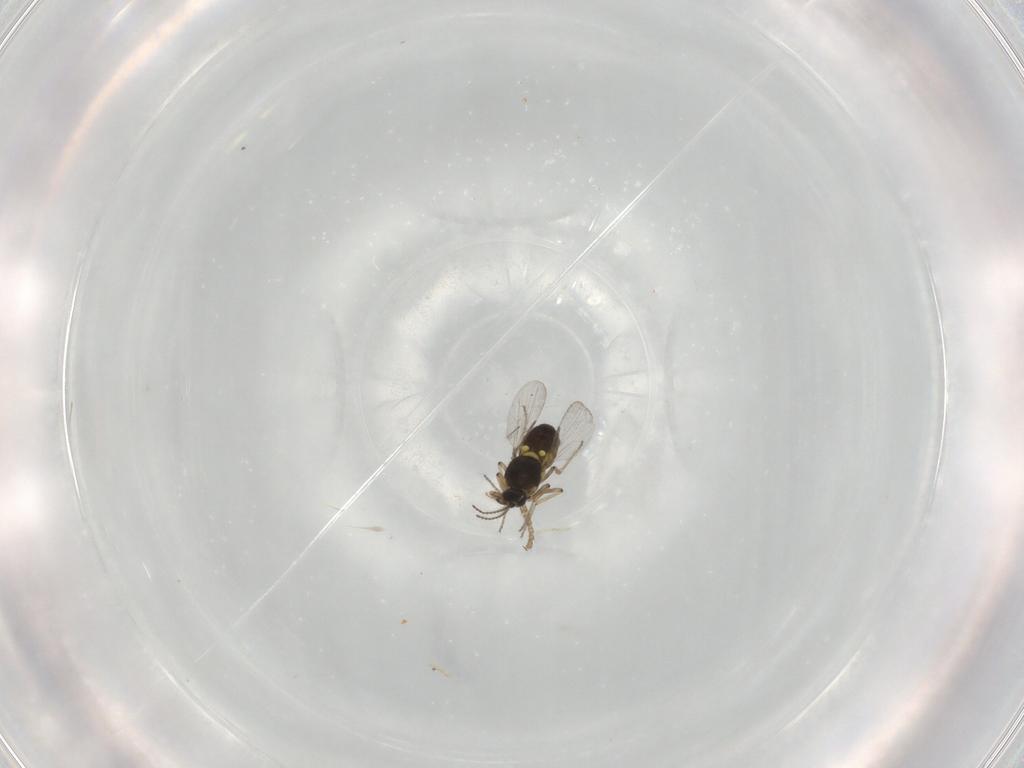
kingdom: Animalia
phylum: Arthropoda
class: Insecta
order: Diptera
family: Ceratopogonidae
